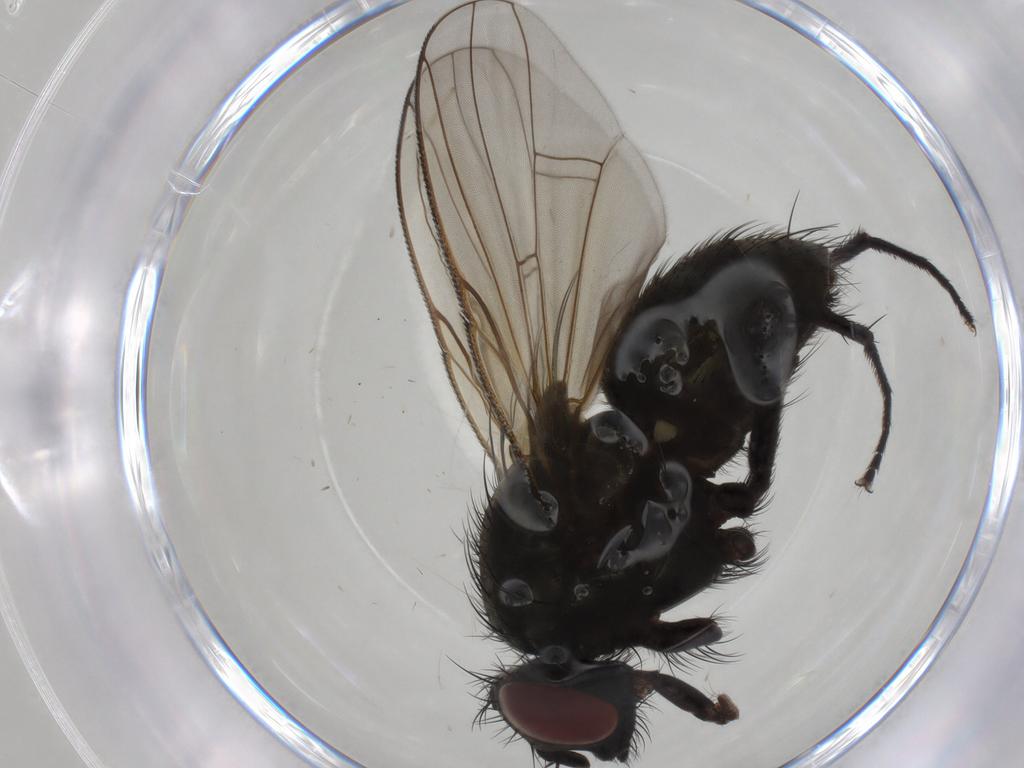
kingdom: Animalia
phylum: Arthropoda
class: Insecta
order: Diptera
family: Muscidae
